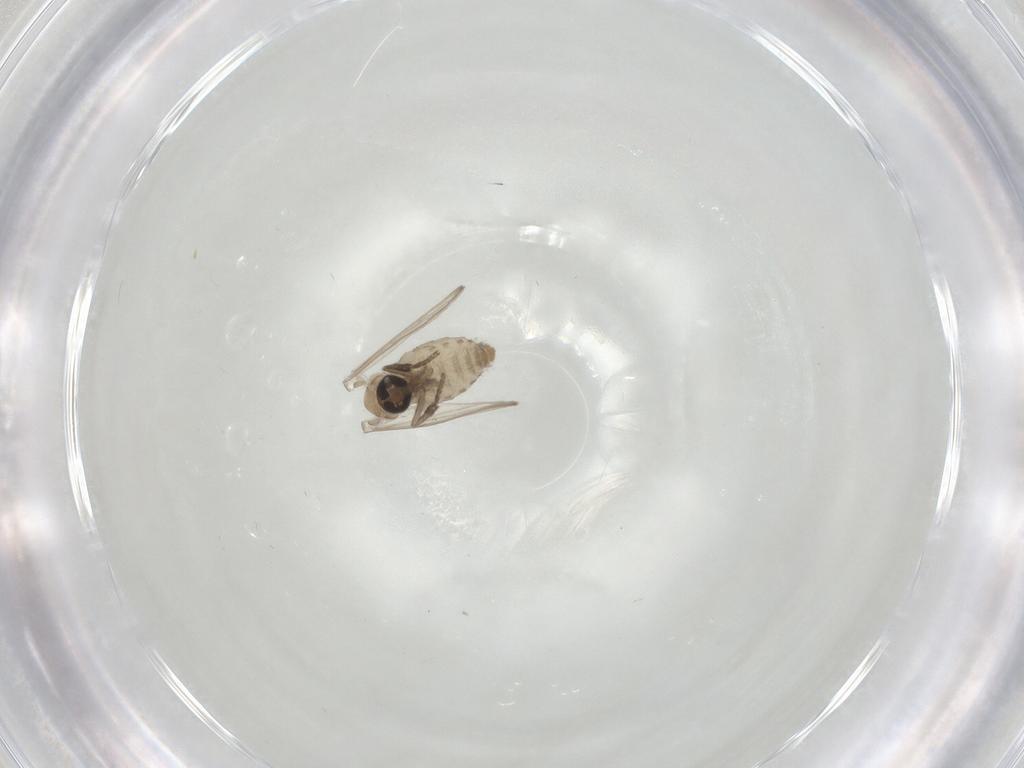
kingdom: Animalia
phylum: Arthropoda
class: Insecta
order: Diptera
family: Psychodidae
